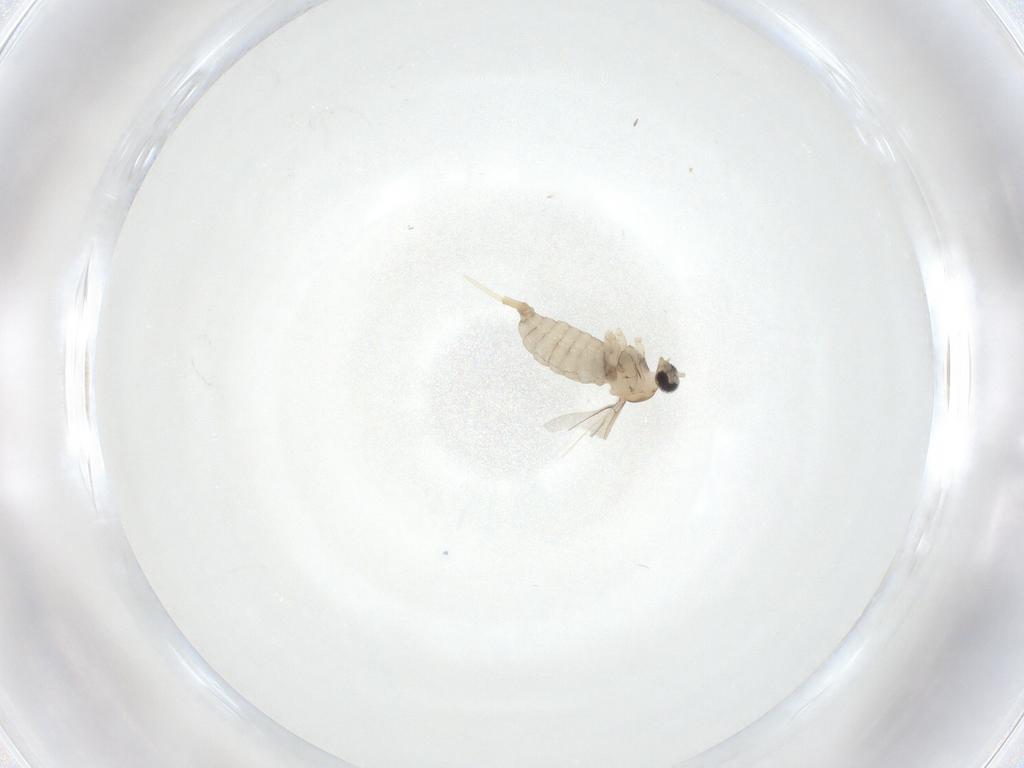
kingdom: Animalia
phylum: Arthropoda
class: Insecta
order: Diptera
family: Cecidomyiidae
